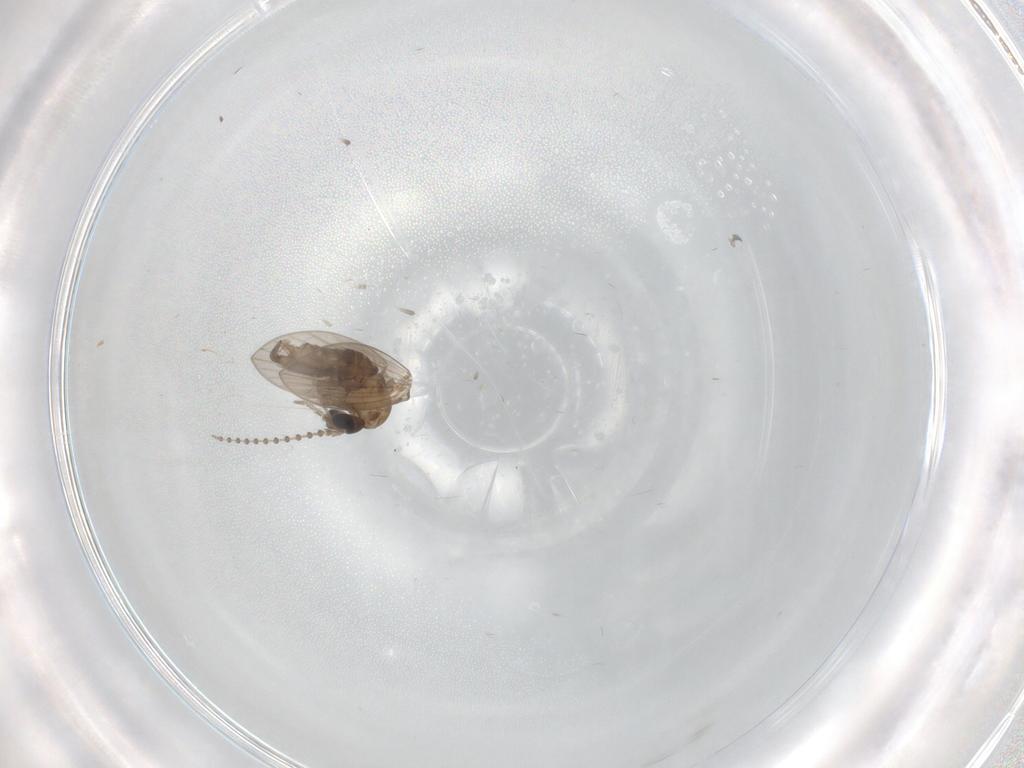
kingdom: Animalia
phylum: Arthropoda
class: Insecta
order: Diptera
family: Psychodidae
